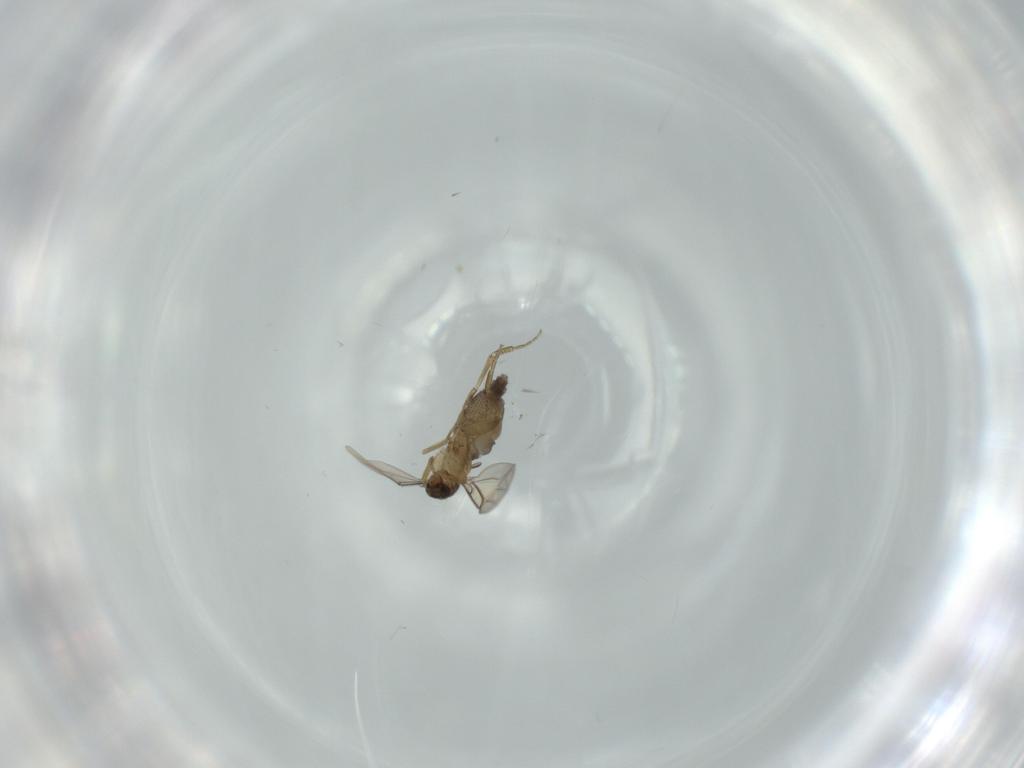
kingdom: Animalia
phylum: Arthropoda
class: Insecta
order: Diptera
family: Phoridae
